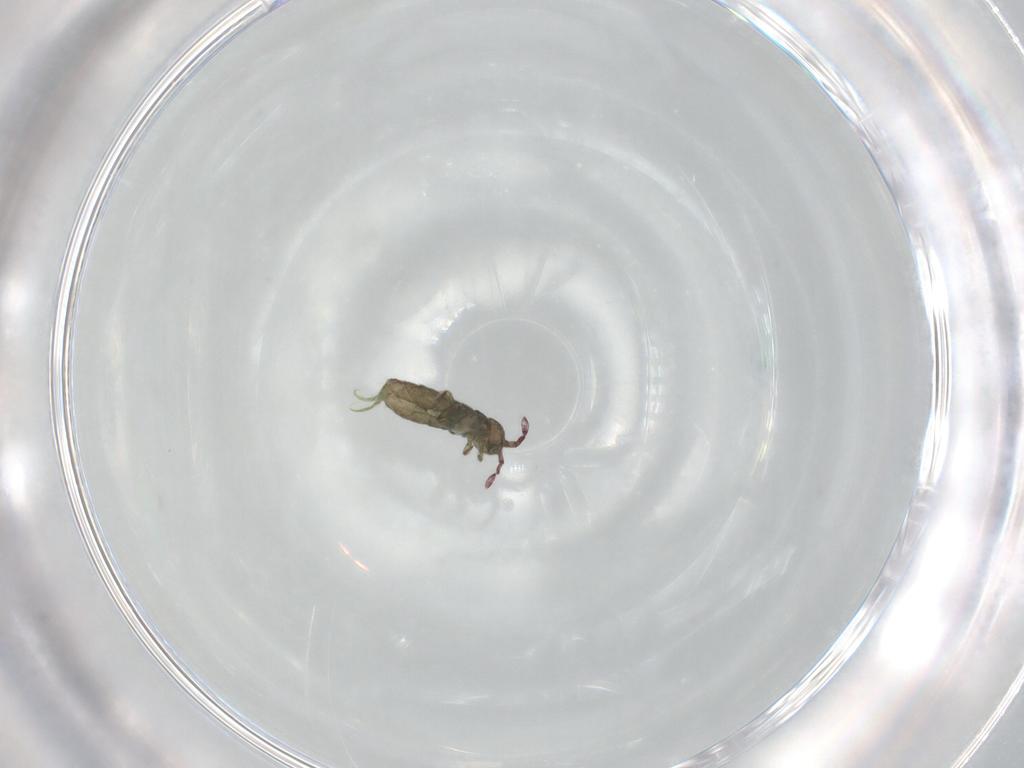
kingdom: Animalia
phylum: Arthropoda
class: Collembola
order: Entomobryomorpha
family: Isotomidae
